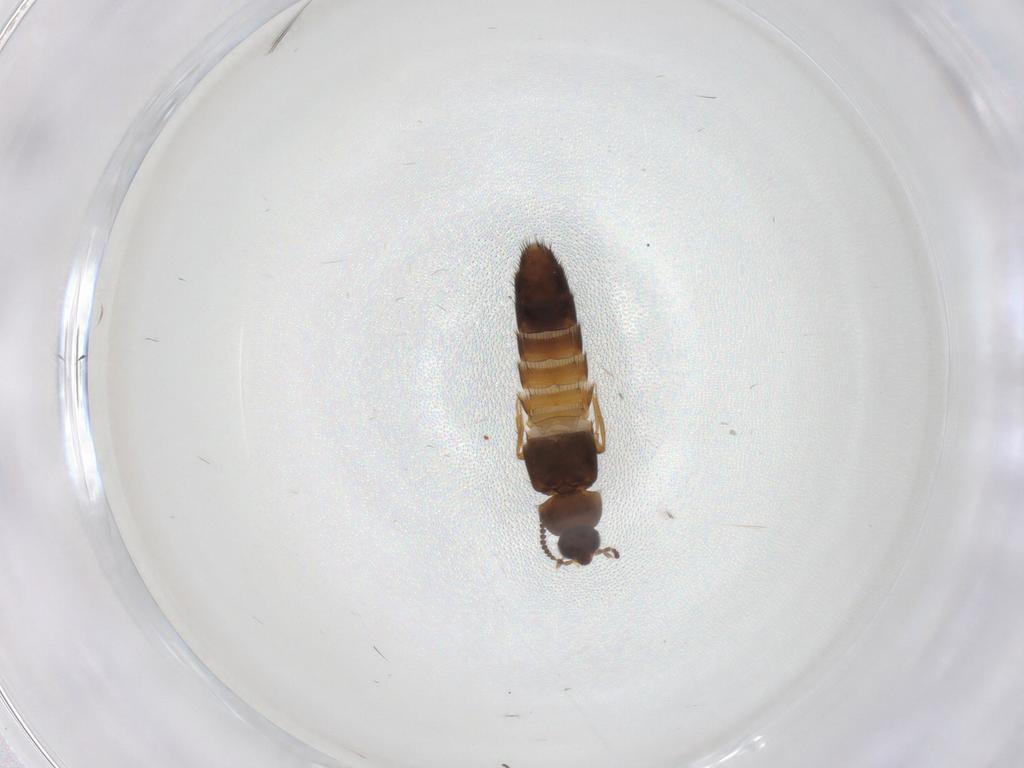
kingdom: Animalia
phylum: Arthropoda
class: Insecta
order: Coleoptera
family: Staphylinidae
